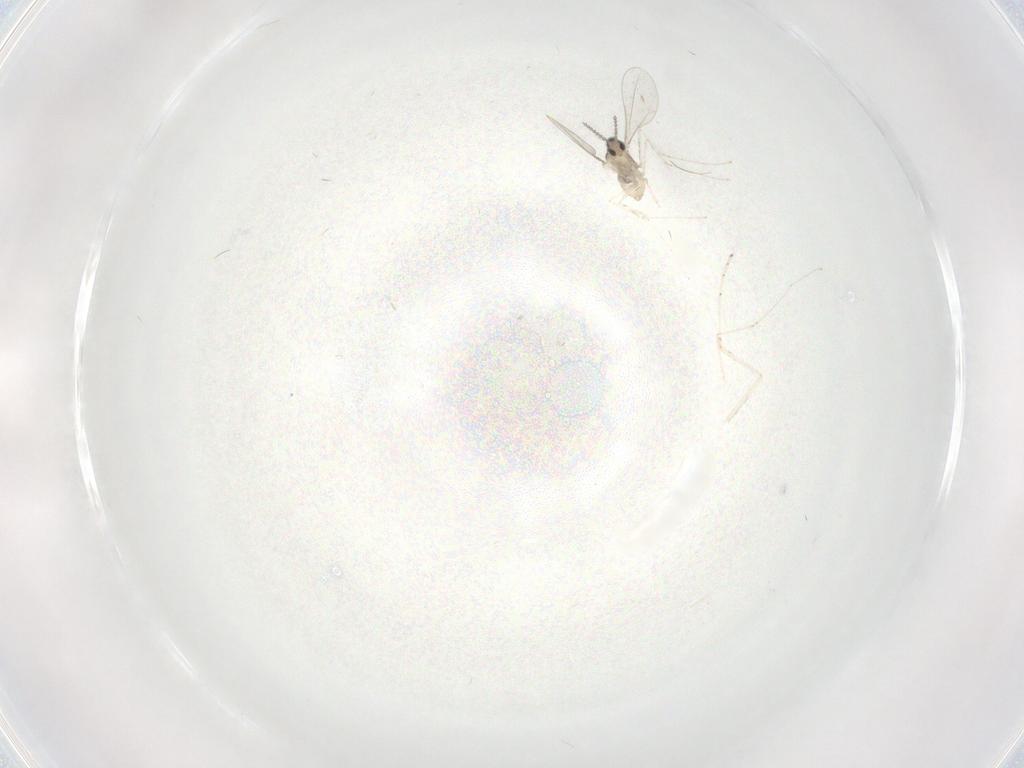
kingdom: Animalia
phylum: Arthropoda
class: Insecta
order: Diptera
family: Cecidomyiidae
